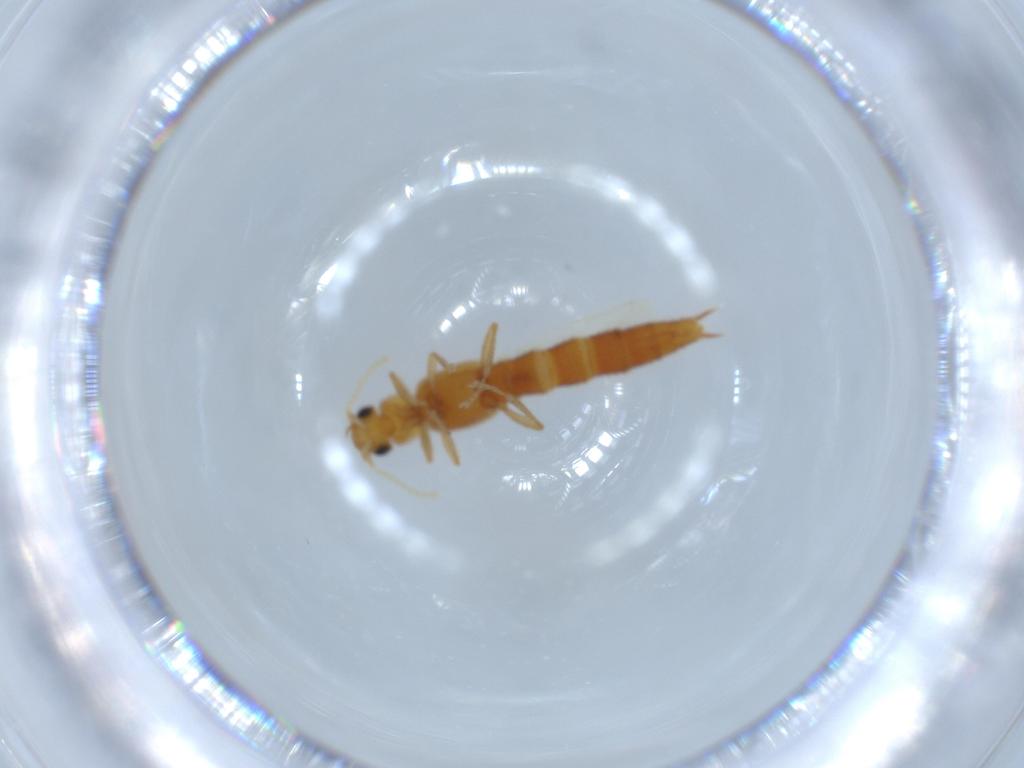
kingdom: Animalia
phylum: Arthropoda
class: Insecta
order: Coleoptera
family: Staphylinidae
